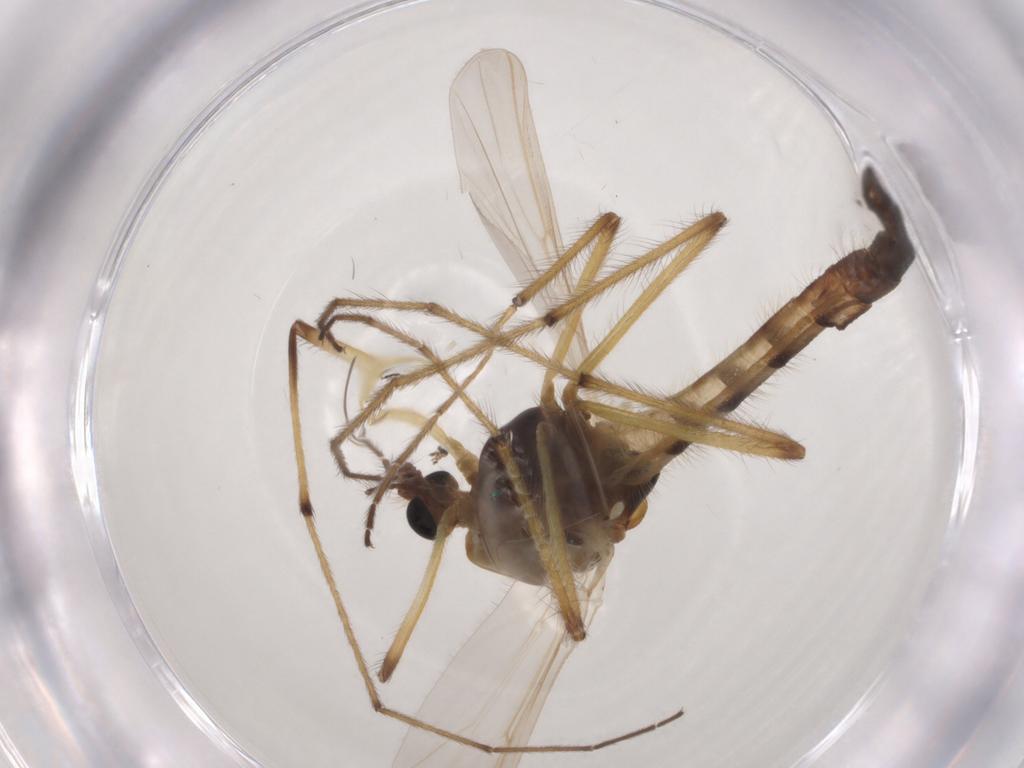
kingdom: Animalia
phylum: Arthropoda
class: Insecta
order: Diptera
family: Chironomidae
